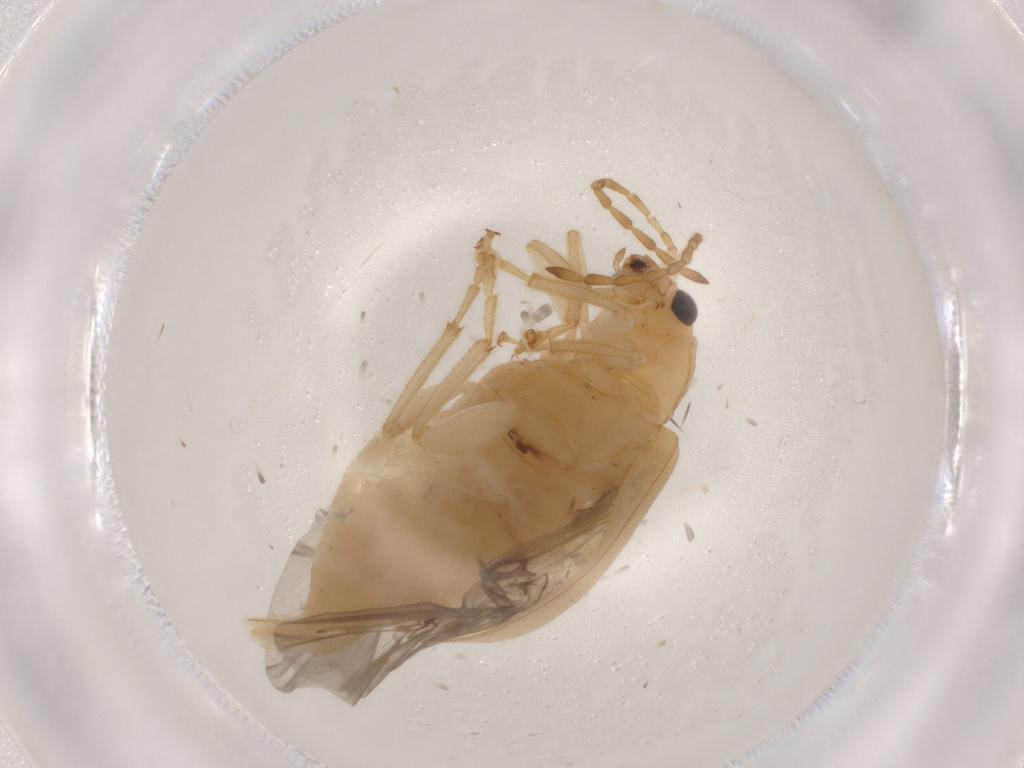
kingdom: Animalia
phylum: Arthropoda
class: Insecta
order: Coleoptera
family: Chrysomelidae
